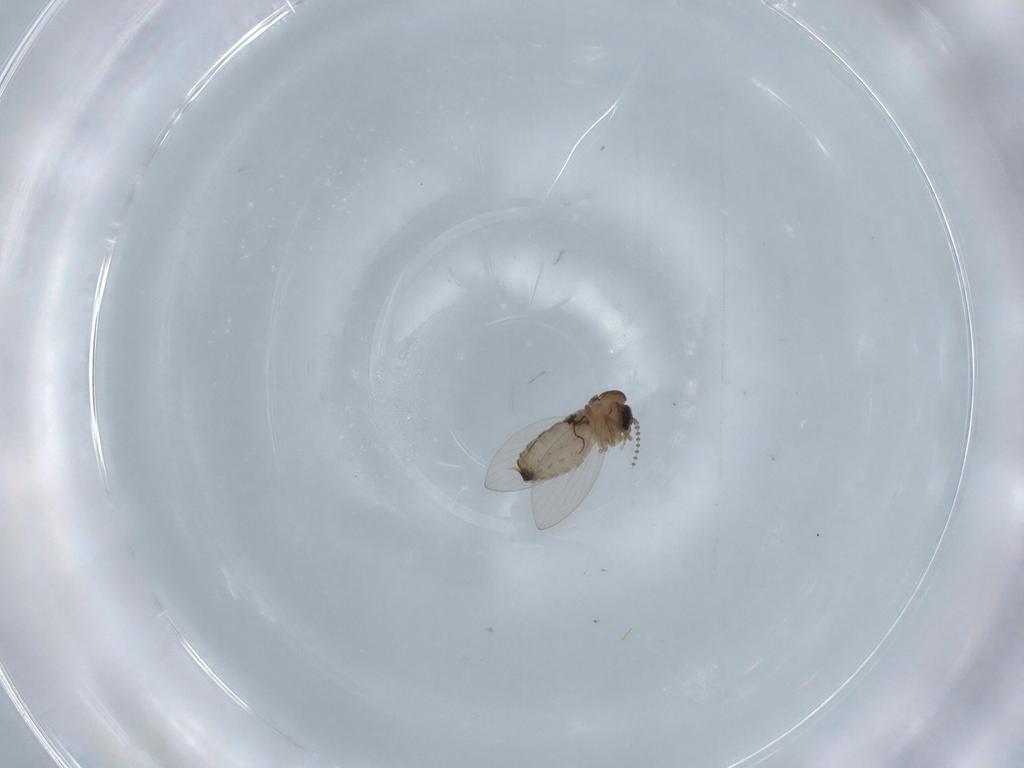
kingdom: Animalia
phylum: Arthropoda
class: Insecta
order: Diptera
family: Psychodidae
